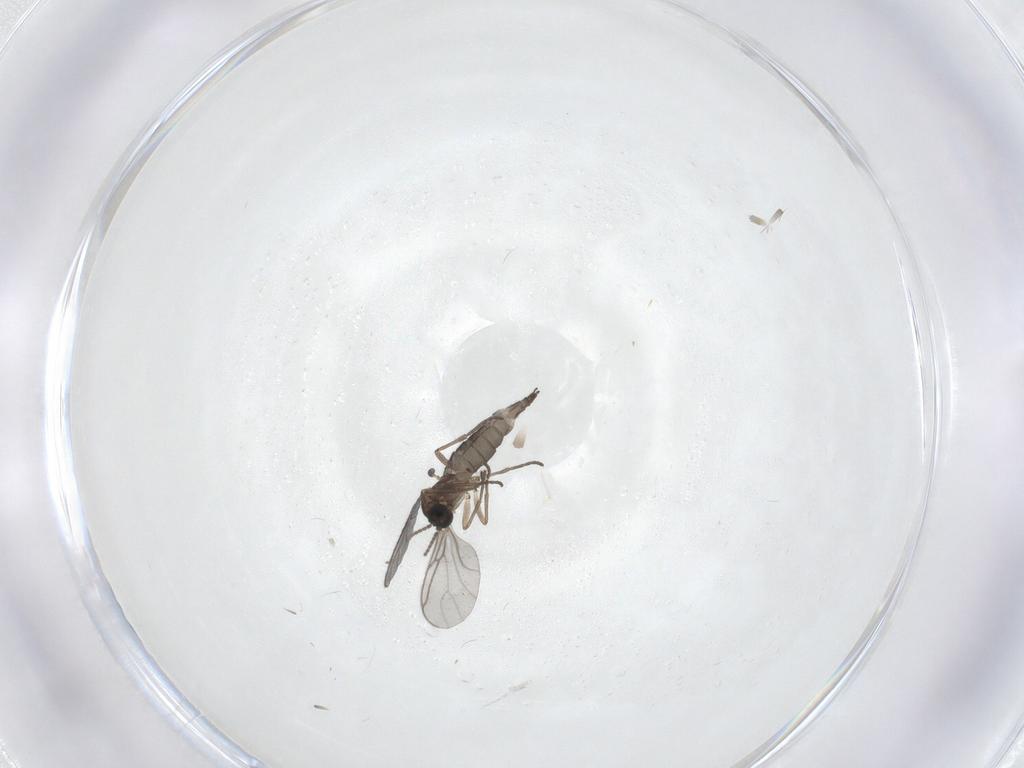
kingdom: Animalia
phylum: Arthropoda
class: Insecta
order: Diptera
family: Sciaridae
